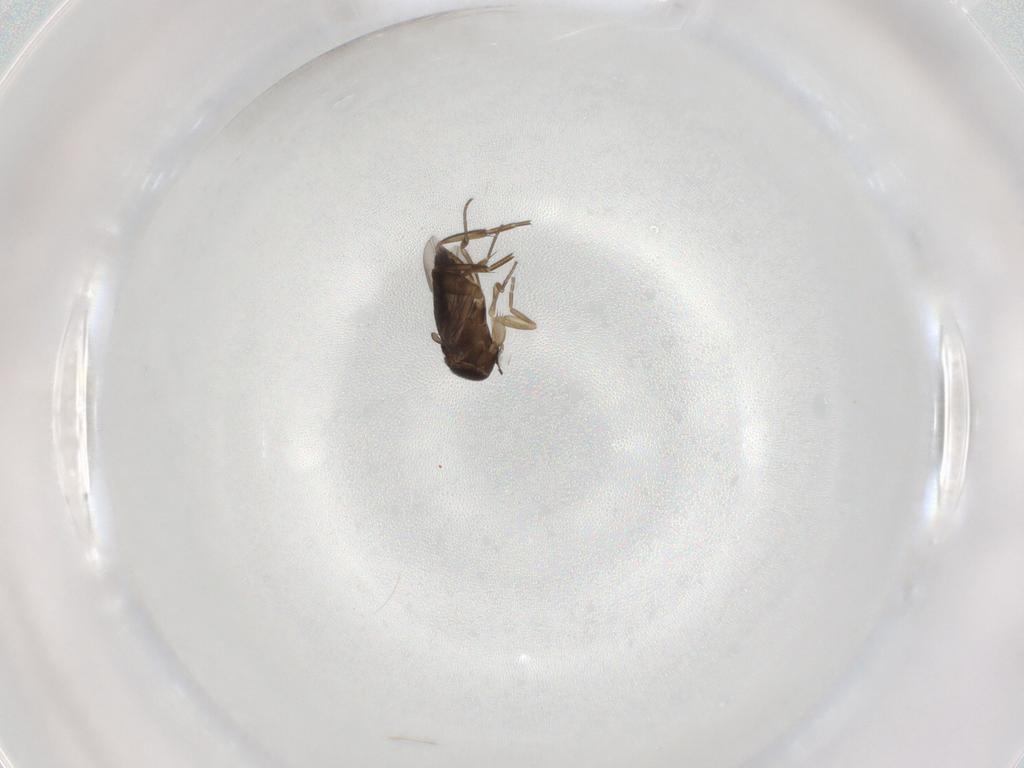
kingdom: Animalia
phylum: Arthropoda
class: Insecta
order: Diptera
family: Phoridae
